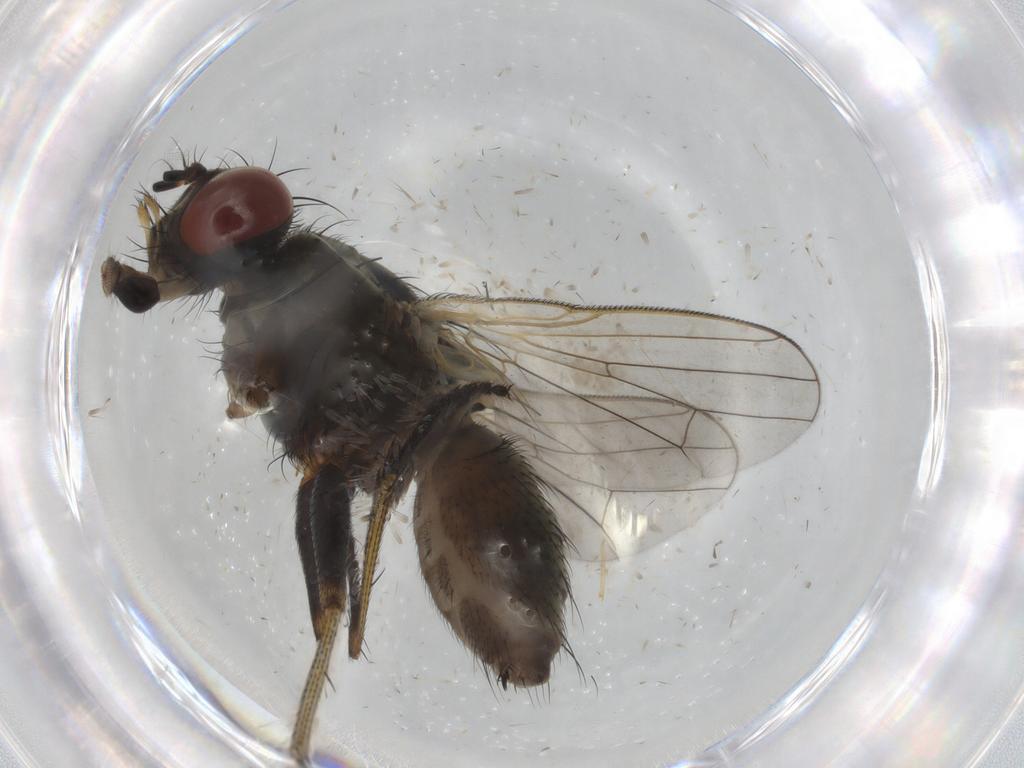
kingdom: Animalia
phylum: Arthropoda
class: Insecta
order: Diptera
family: Muscidae
